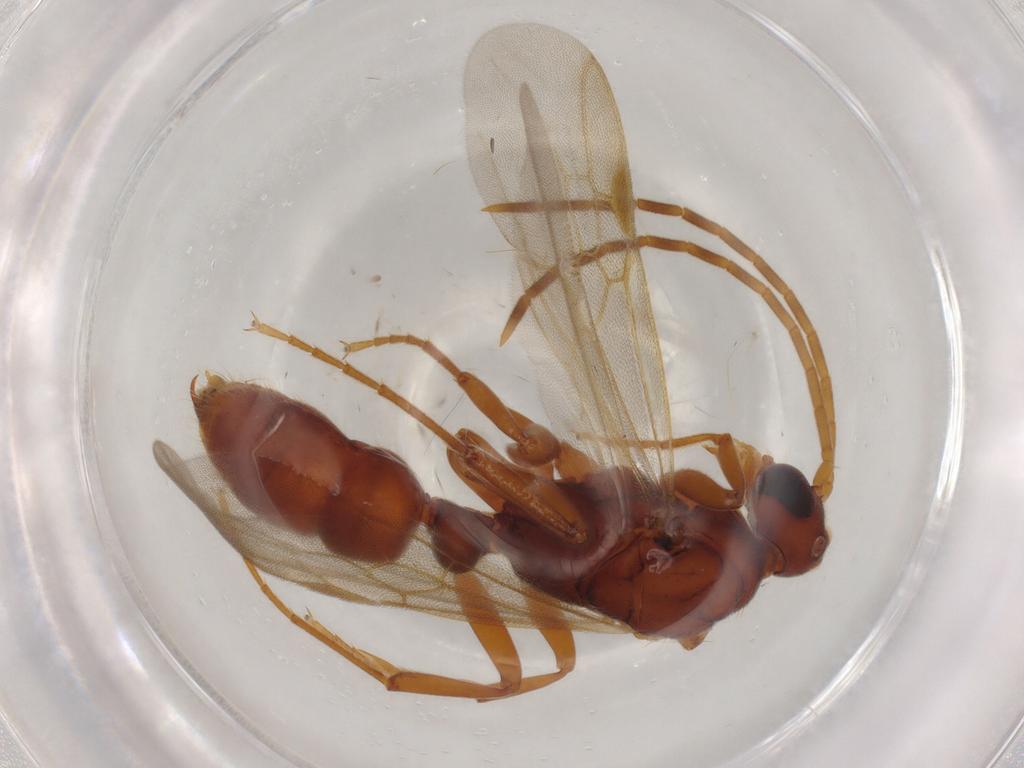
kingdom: Animalia
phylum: Arthropoda
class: Insecta
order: Hymenoptera
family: Formicidae
